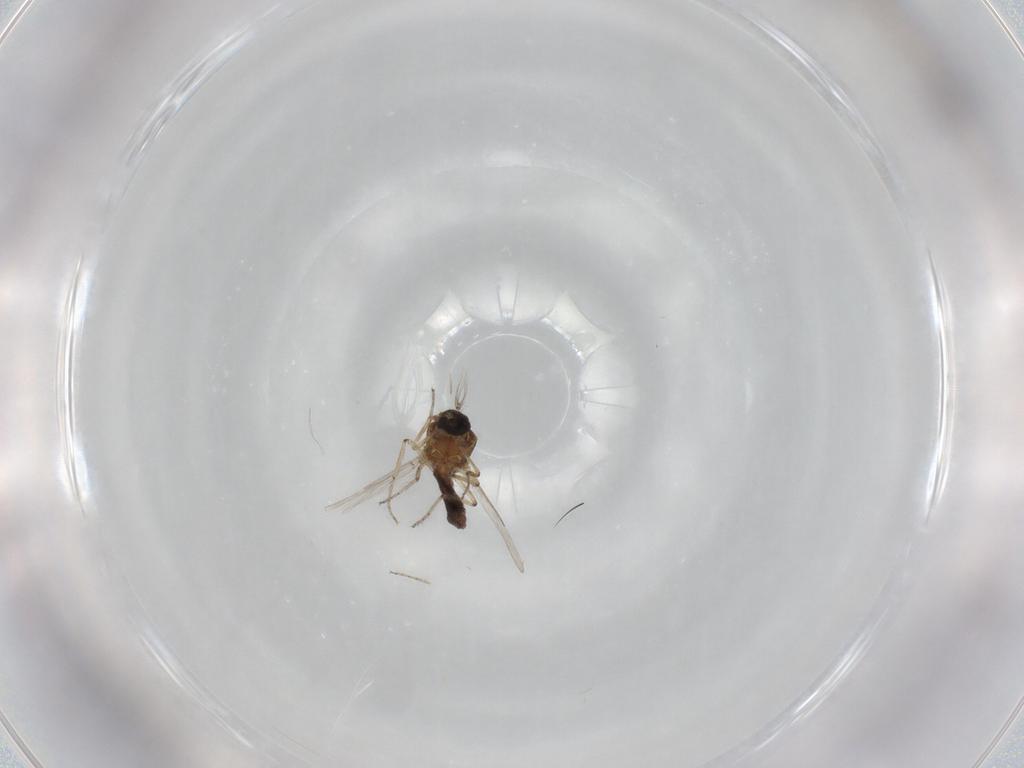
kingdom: Animalia
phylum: Arthropoda
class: Insecta
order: Diptera
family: Ceratopogonidae
